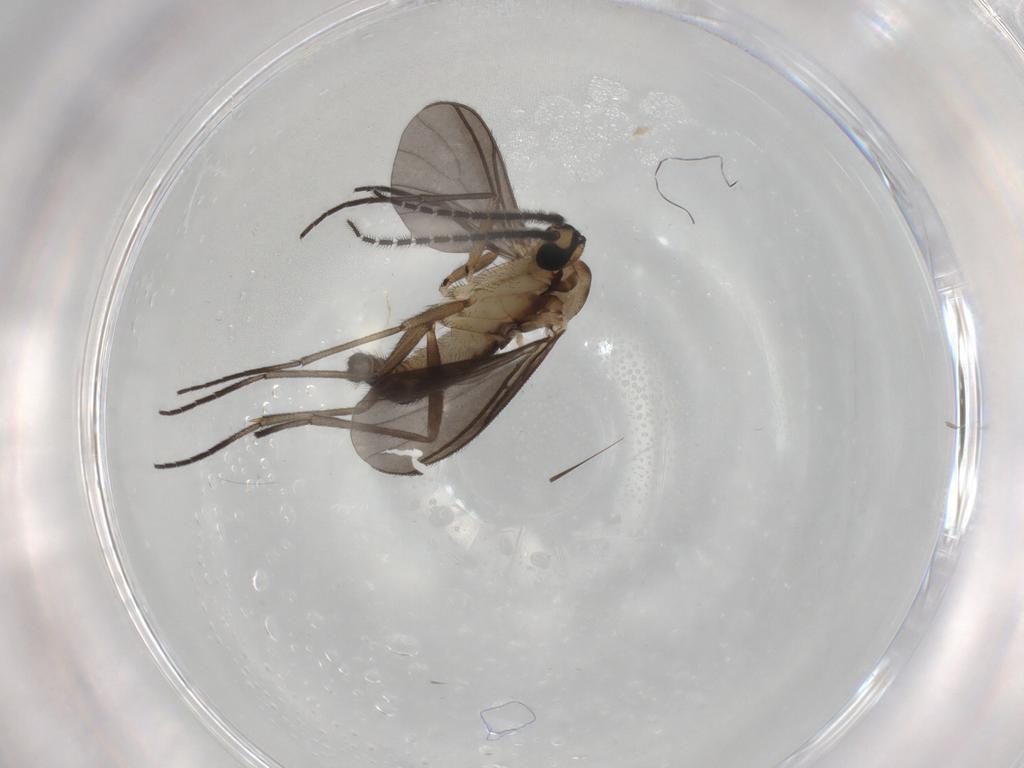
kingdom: Animalia
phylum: Arthropoda
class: Insecta
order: Diptera
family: Sciaridae
